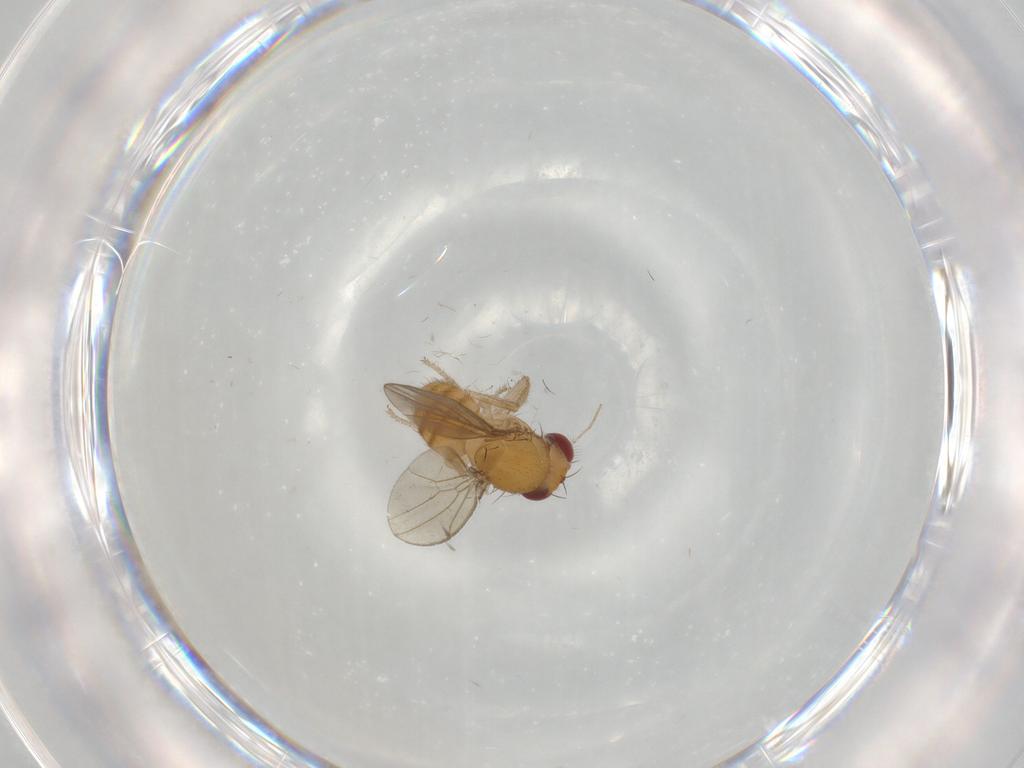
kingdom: Animalia
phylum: Arthropoda
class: Insecta
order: Diptera
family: Drosophilidae
